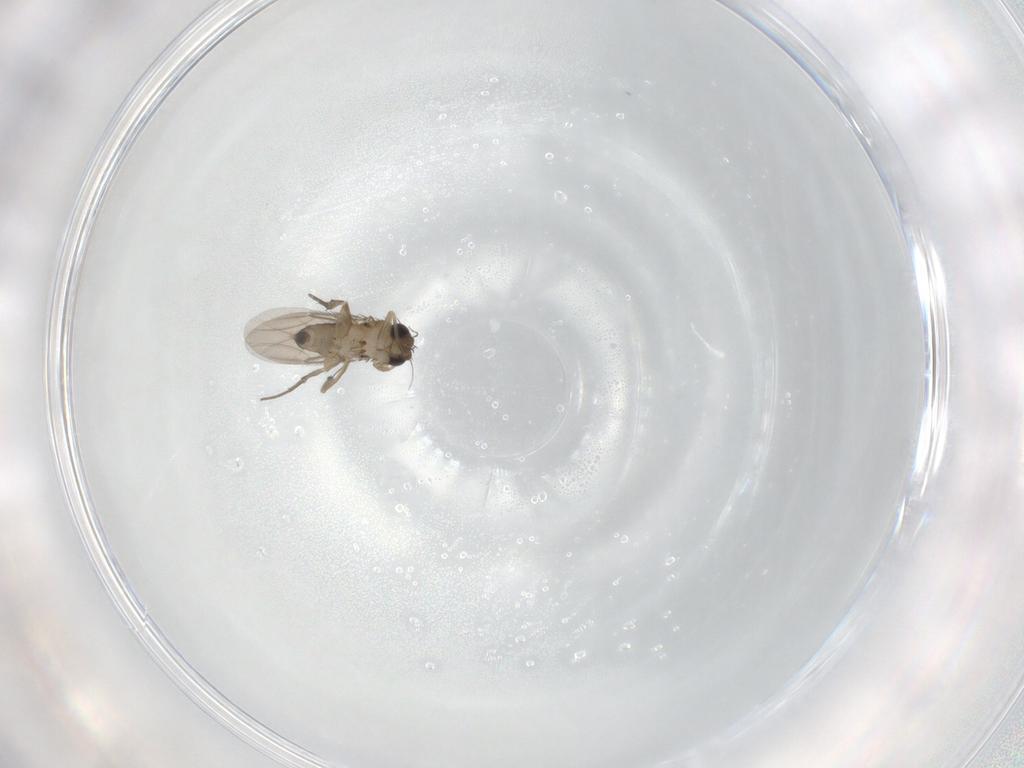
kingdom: Animalia
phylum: Arthropoda
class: Insecta
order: Diptera
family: Phoridae
